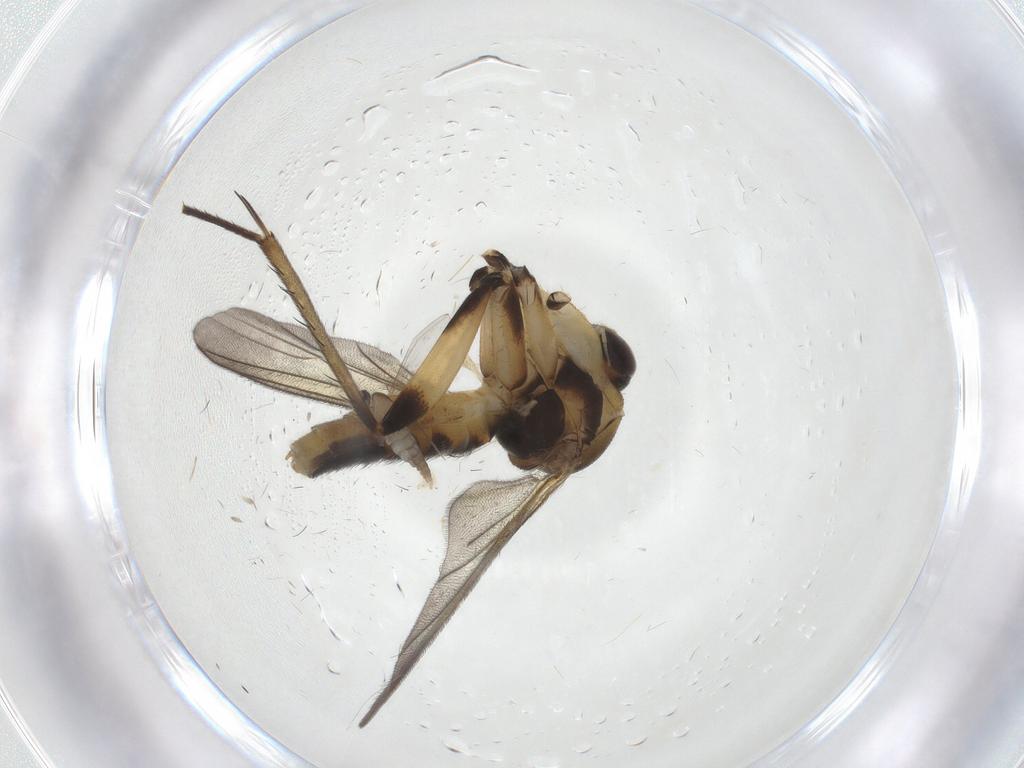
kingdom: Animalia
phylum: Arthropoda
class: Insecta
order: Diptera
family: Mycetophilidae
